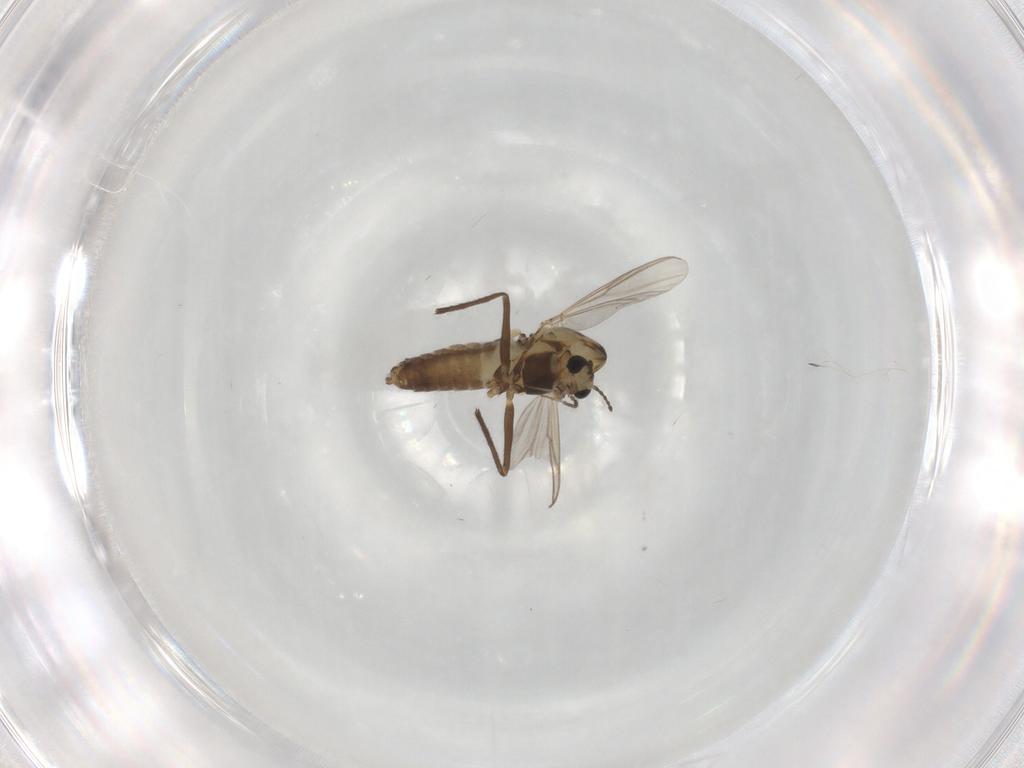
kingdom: Animalia
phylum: Arthropoda
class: Insecta
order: Diptera
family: Chironomidae
